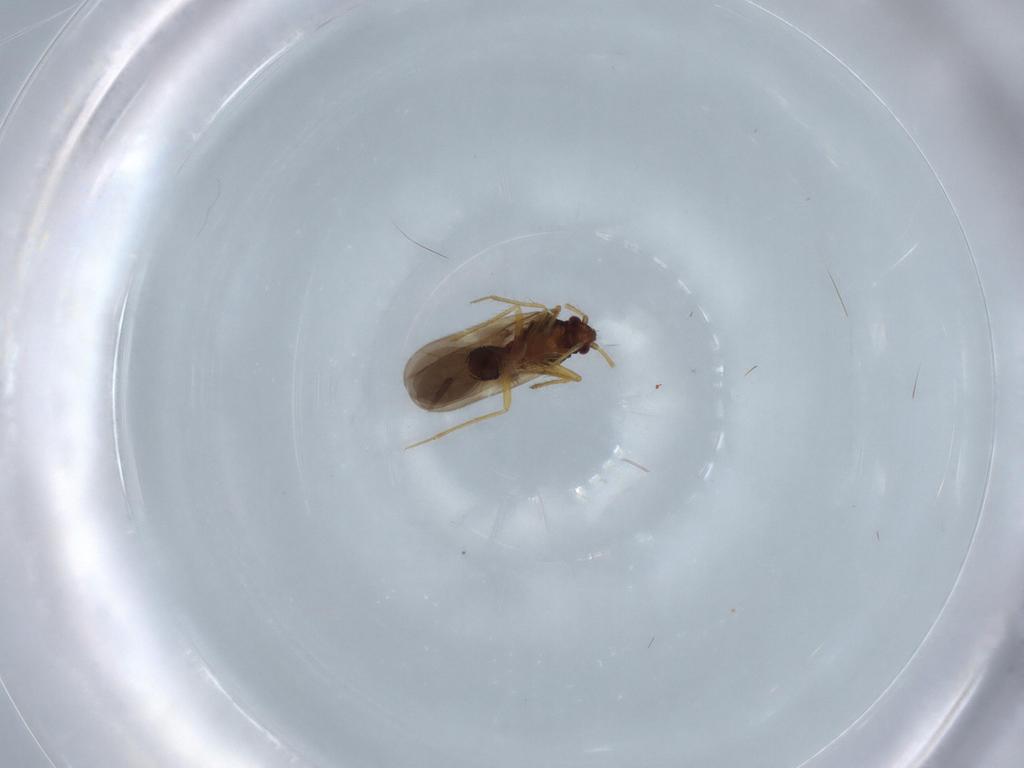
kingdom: Animalia
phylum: Arthropoda
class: Insecta
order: Hemiptera
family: Ceratocombidae
